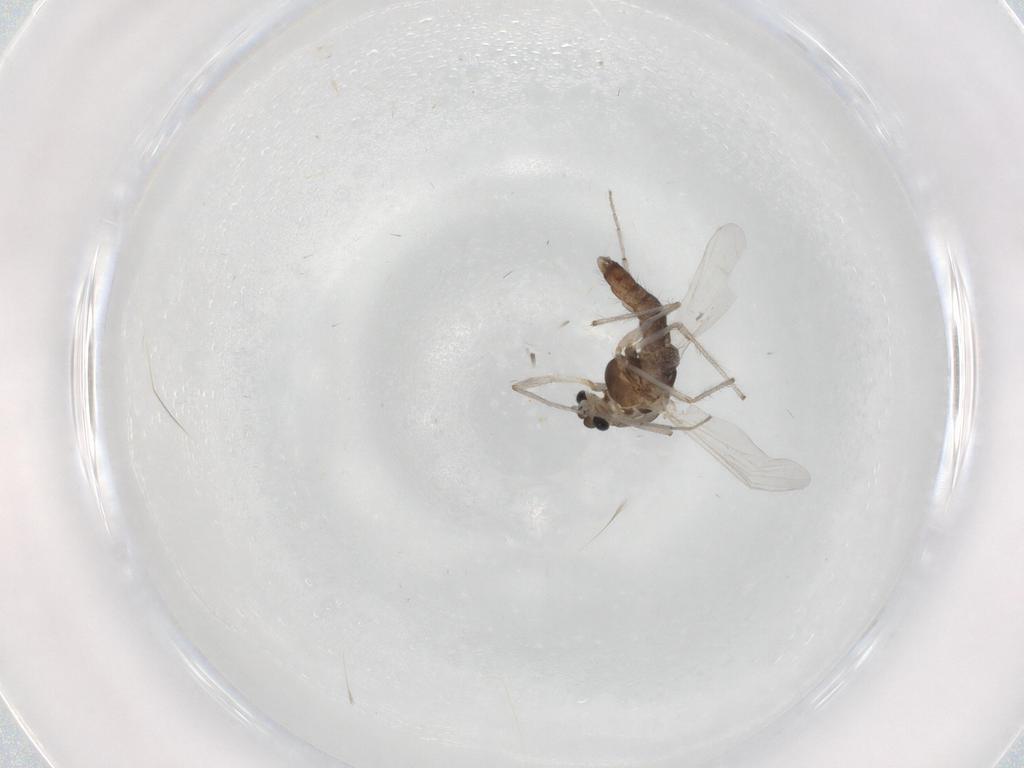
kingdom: Animalia
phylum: Arthropoda
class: Insecta
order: Diptera
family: Chironomidae
